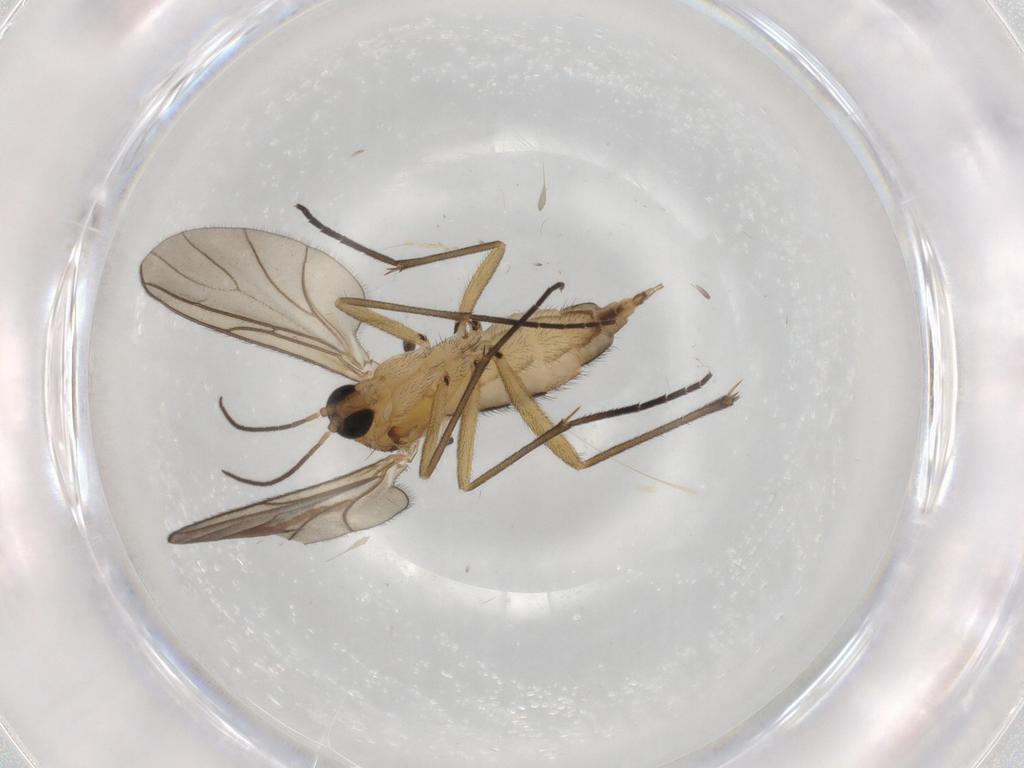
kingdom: Animalia
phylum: Arthropoda
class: Insecta
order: Diptera
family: Sciaridae
